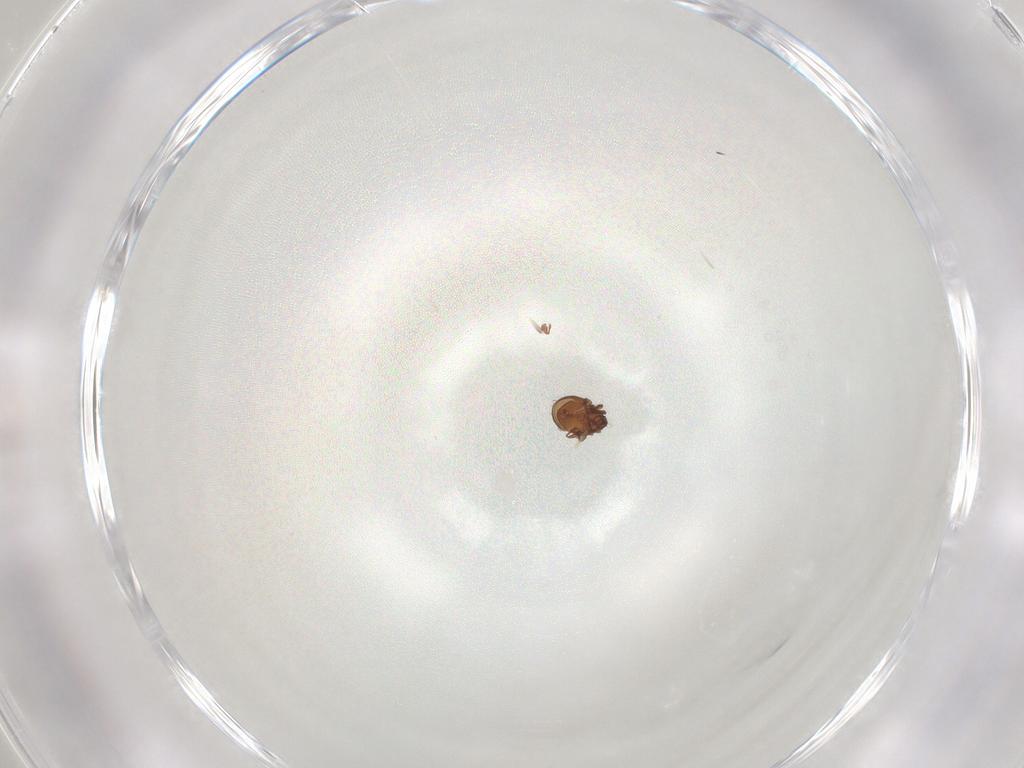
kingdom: Animalia
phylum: Arthropoda
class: Arachnida
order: Sarcoptiformes
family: Scheloribatidae
